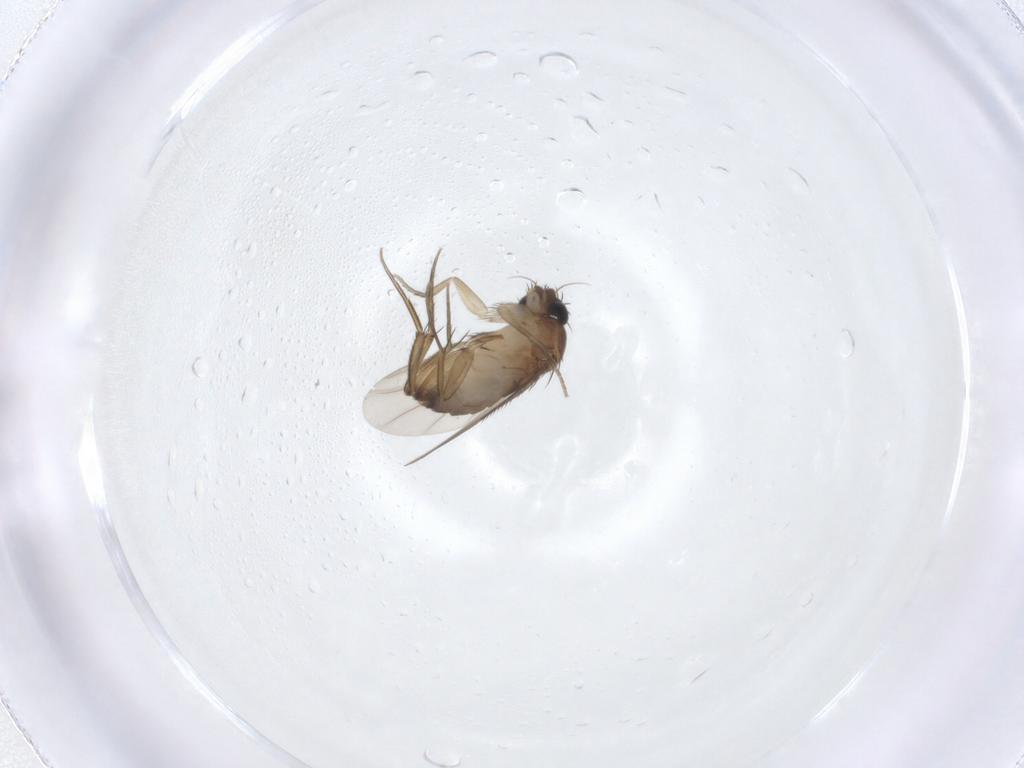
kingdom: Animalia
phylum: Arthropoda
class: Insecta
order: Diptera
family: Phoridae
